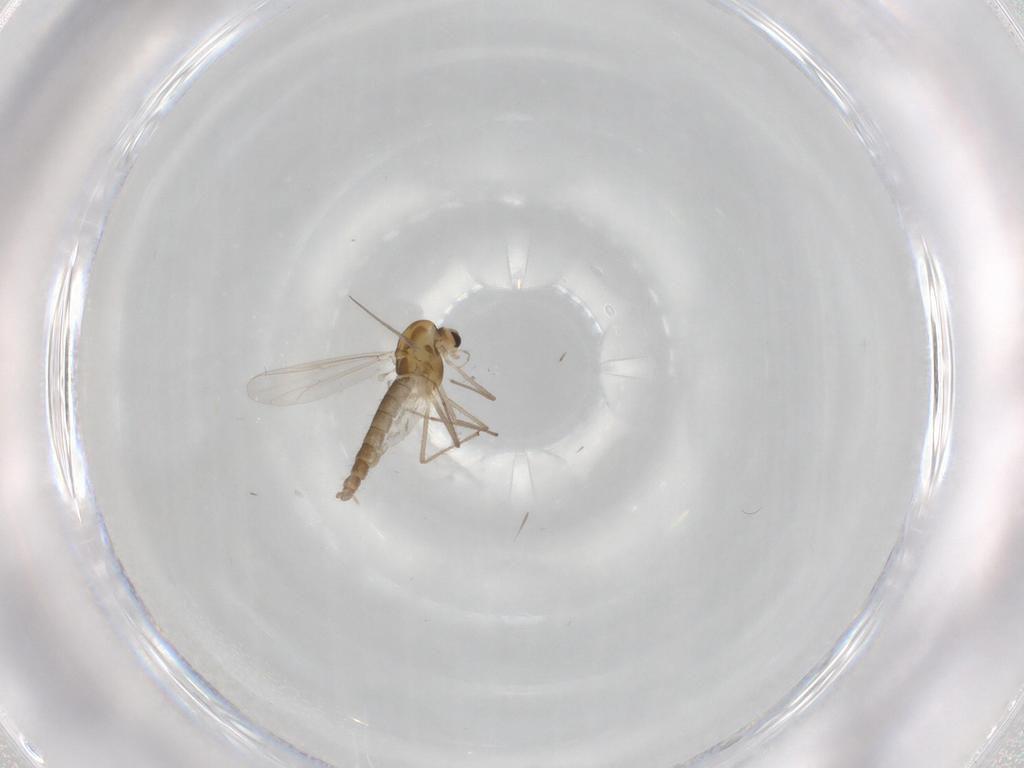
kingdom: Animalia
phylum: Arthropoda
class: Insecta
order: Diptera
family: Chironomidae
